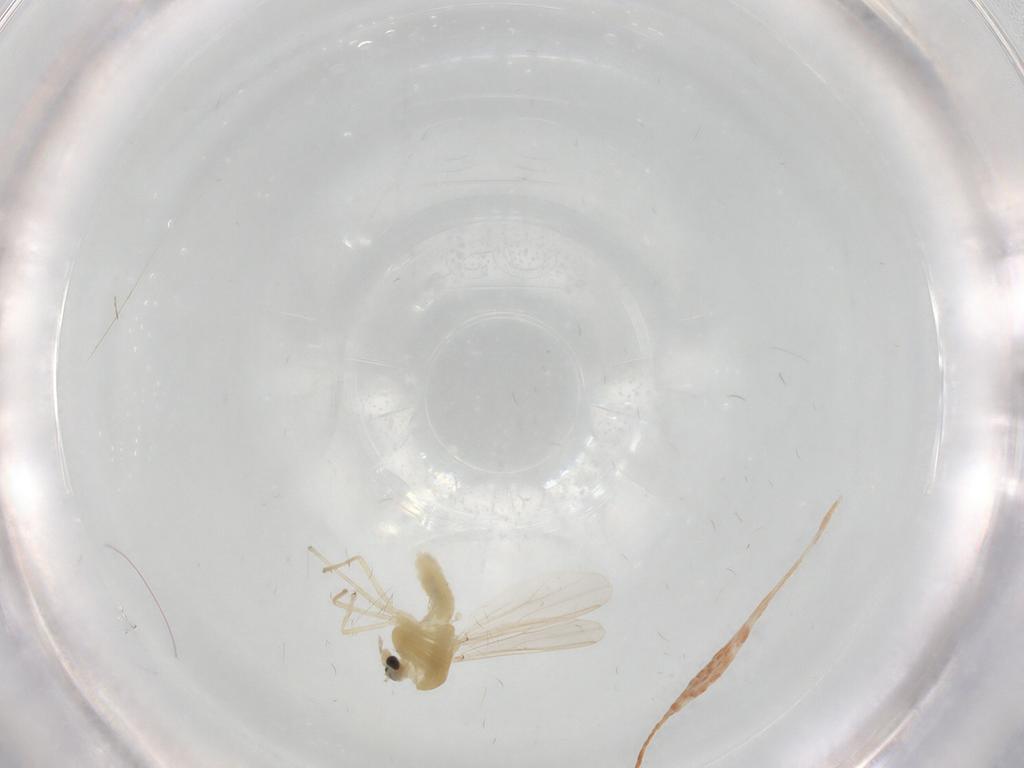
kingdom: Animalia
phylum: Arthropoda
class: Insecta
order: Diptera
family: Chironomidae
